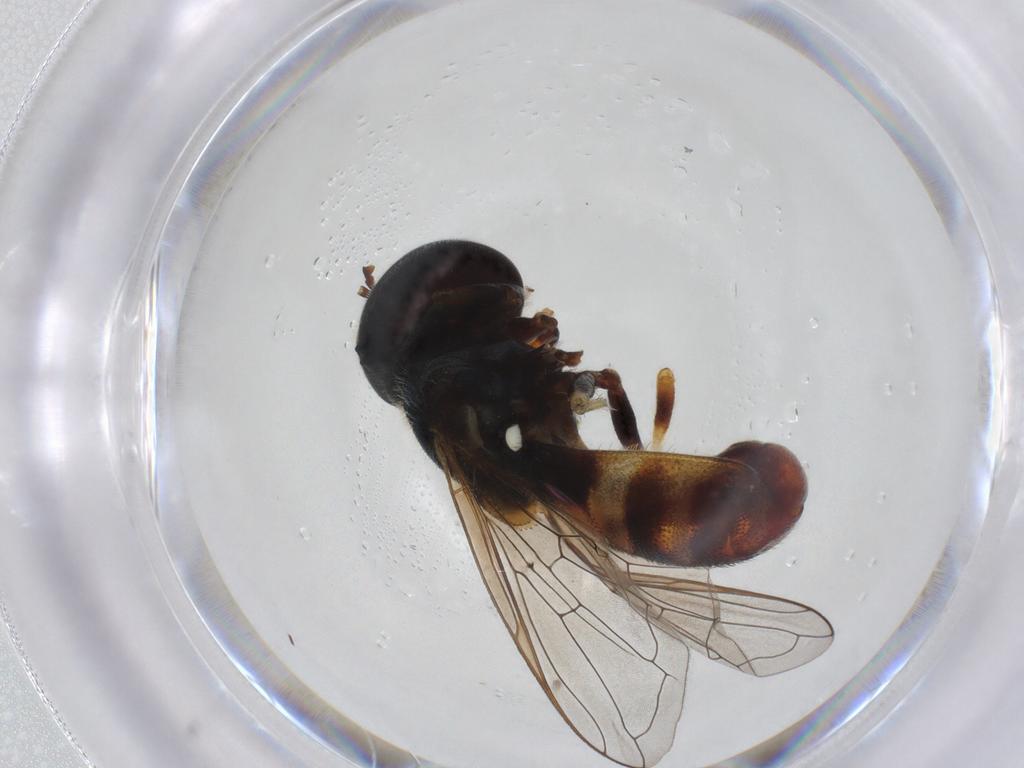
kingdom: Animalia
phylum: Arthropoda
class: Insecta
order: Diptera
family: Syrphidae
